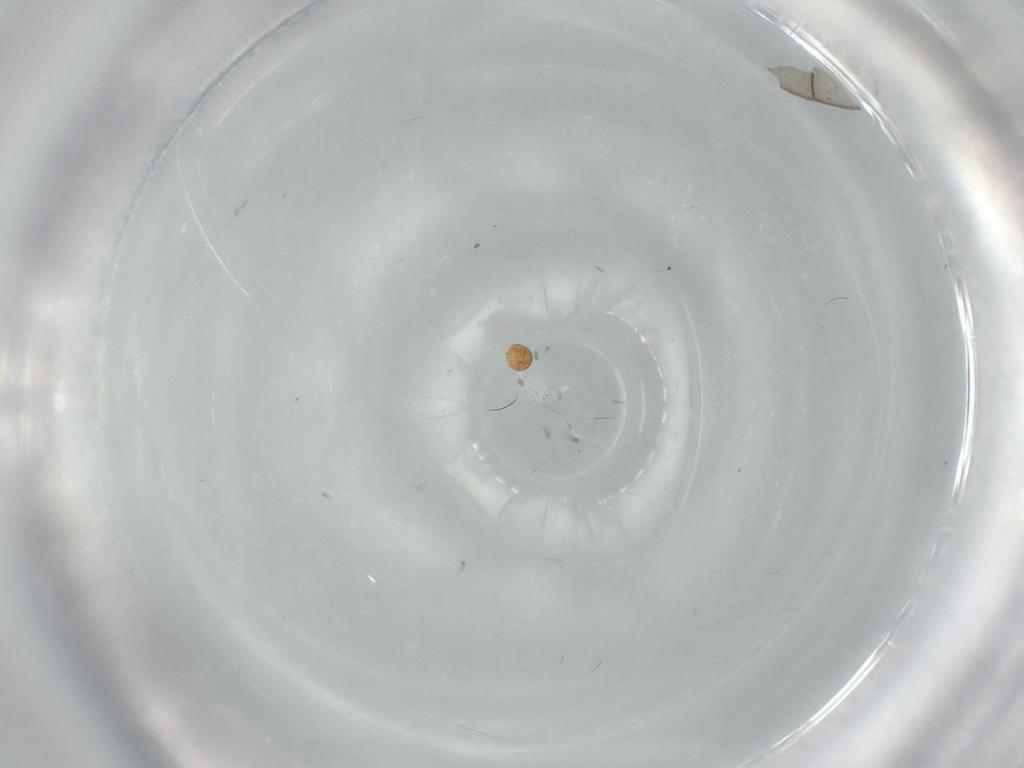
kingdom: Animalia
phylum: Arthropoda
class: Arachnida
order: Trombidiformes
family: Scutacaridae
